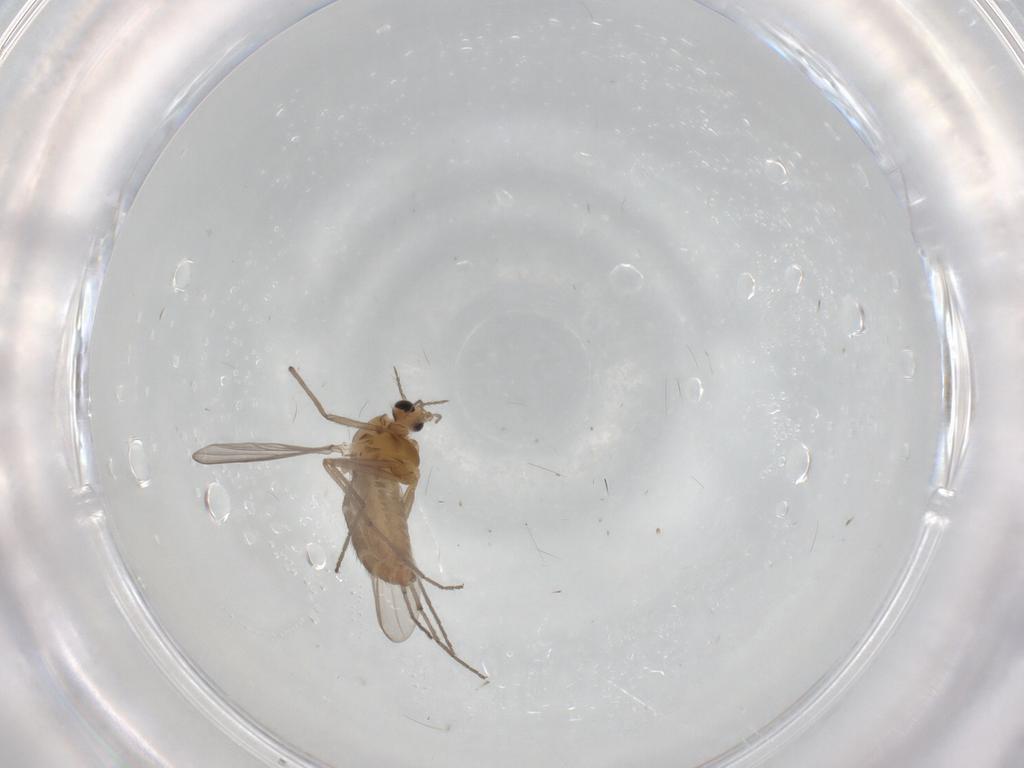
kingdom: Animalia
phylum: Arthropoda
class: Insecta
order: Diptera
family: Chironomidae
